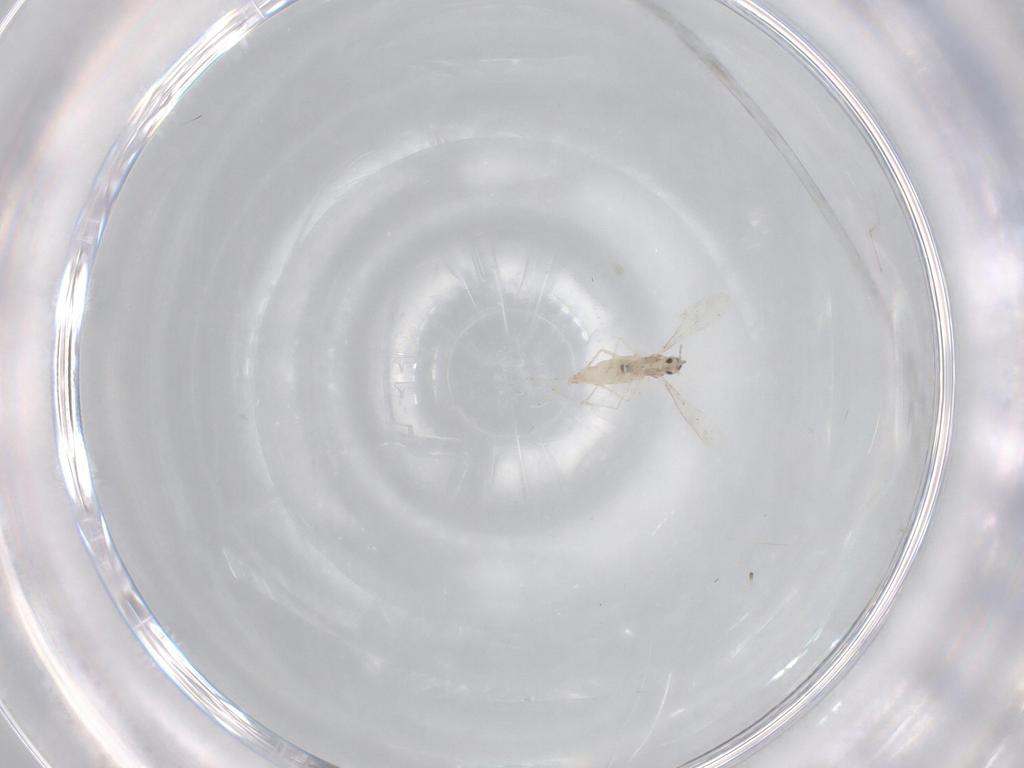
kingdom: Animalia
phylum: Arthropoda
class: Insecta
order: Diptera
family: Cecidomyiidae
